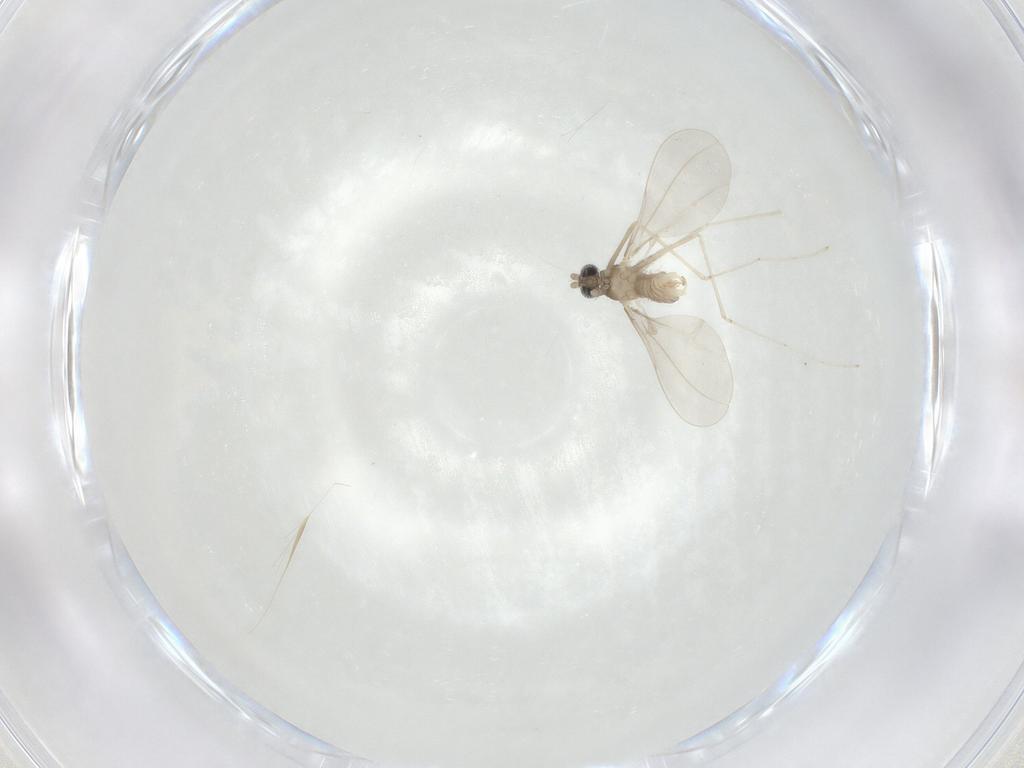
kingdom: Animalia
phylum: Arthropoda
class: Insecta
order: Diptera
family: Cecidomyiidae
